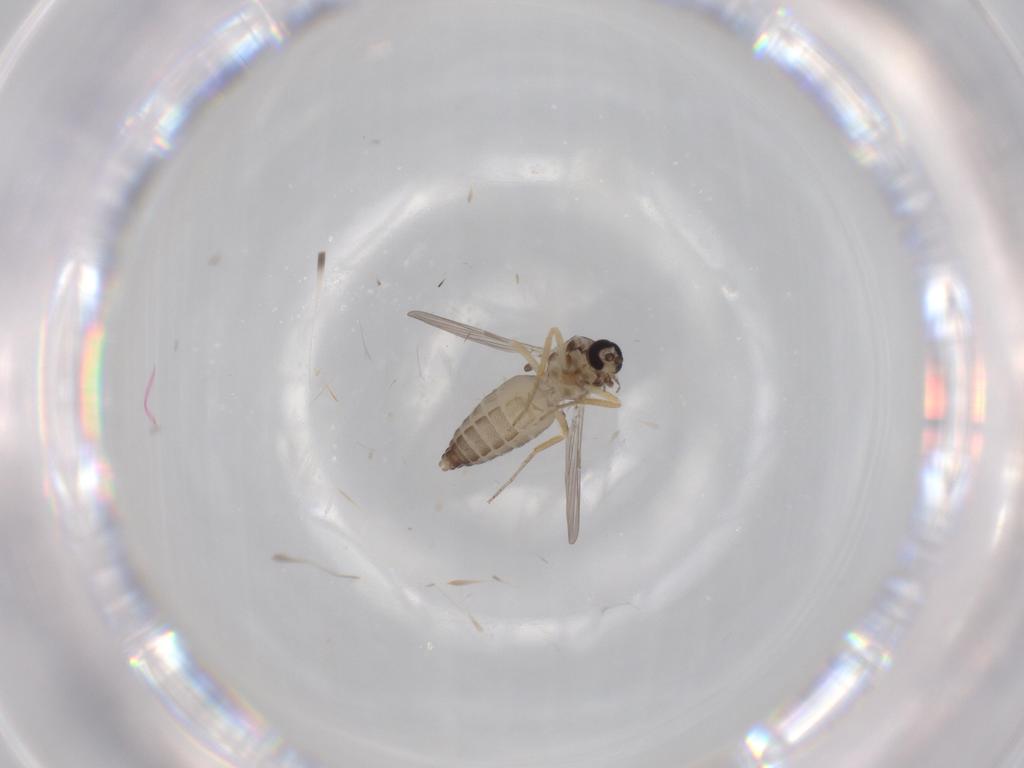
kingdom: Animalia
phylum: Arthropoda
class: Insecta
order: Diptera
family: Ceratopogonidae
